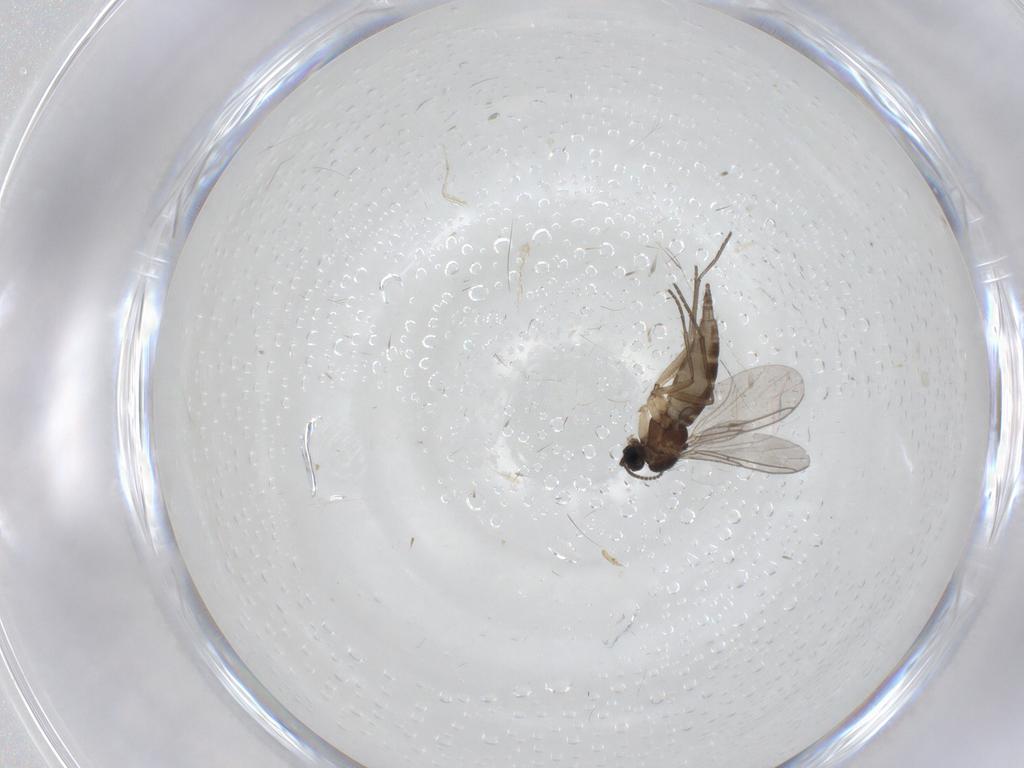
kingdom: Animalia
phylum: Arthropoda
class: Insecta
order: Diptera
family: Sciaridae
